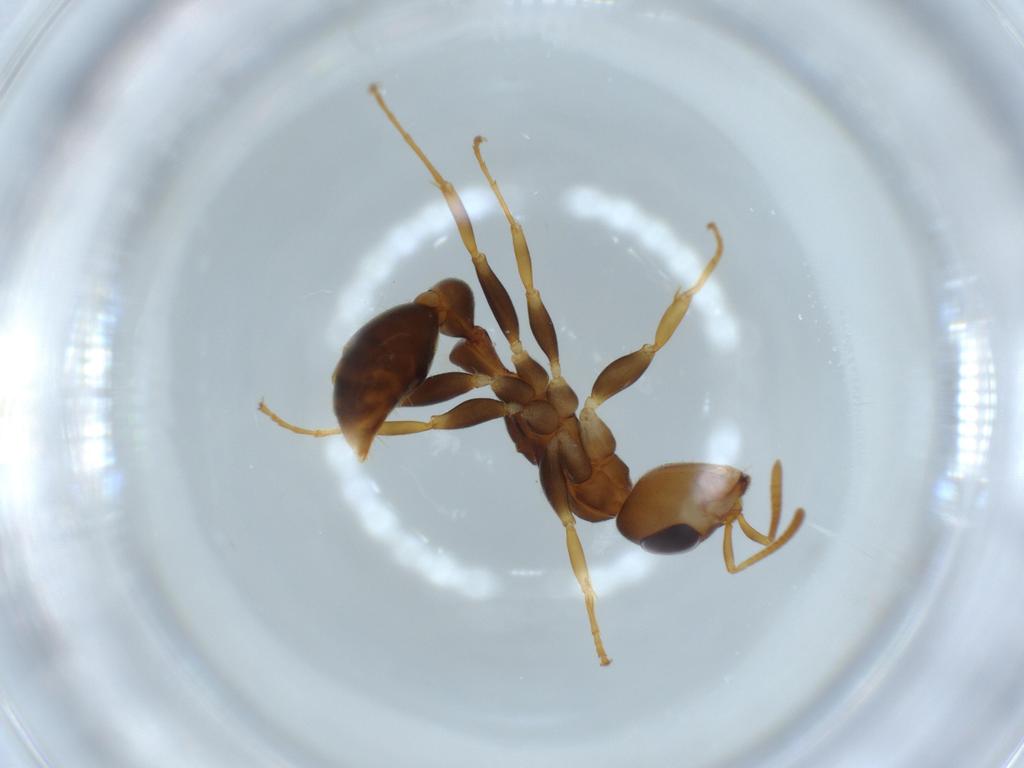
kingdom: Animalia
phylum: Arthropoda
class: Insecta
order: Hymenoptera
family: Formicidae
